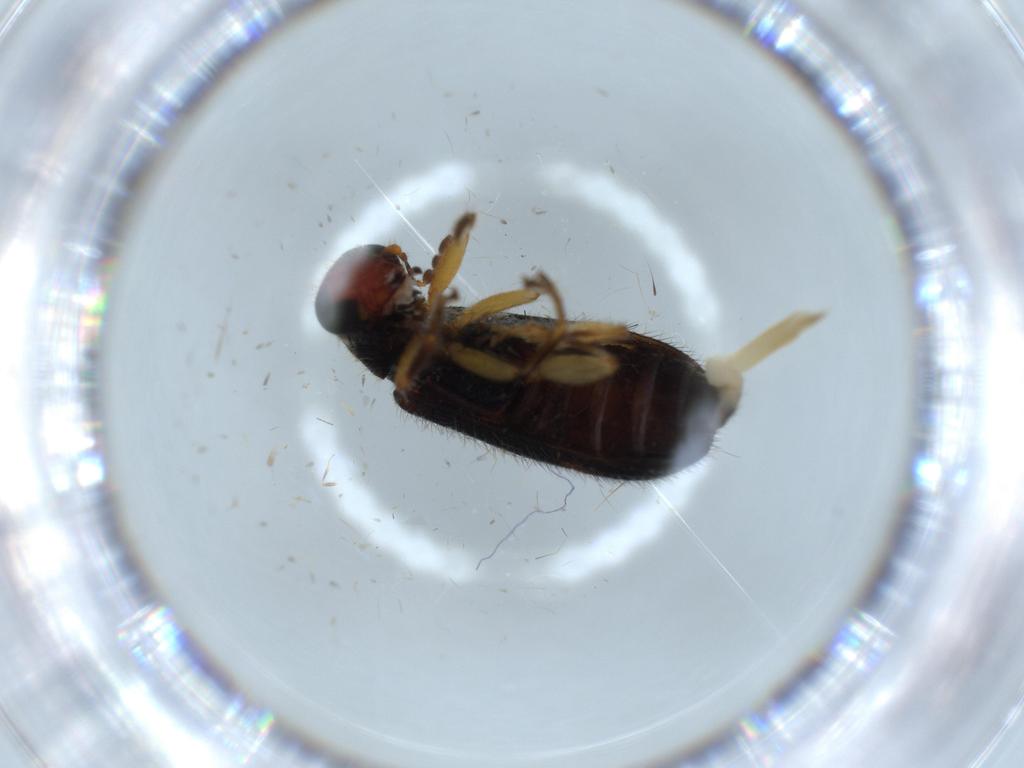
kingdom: Animalia
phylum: Arthropoda
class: Insecta
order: Coleoptera
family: Cleridae
